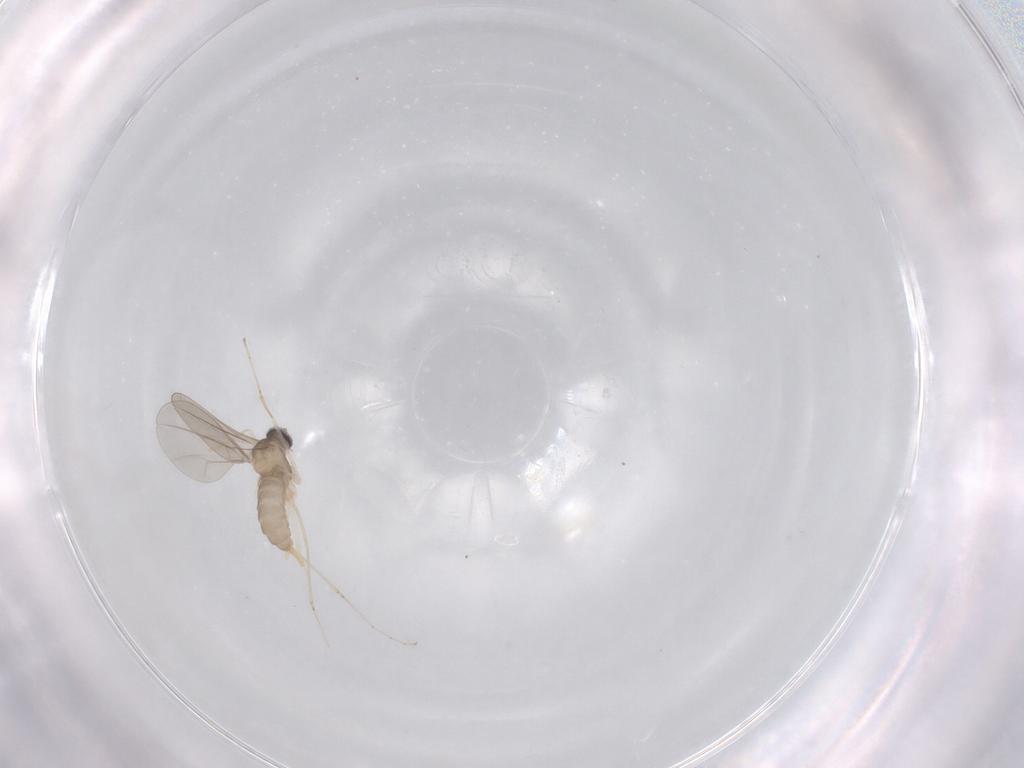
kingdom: Animalia
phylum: Arthropoda
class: Insecta
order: Diptera
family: Cecidomyiidae
